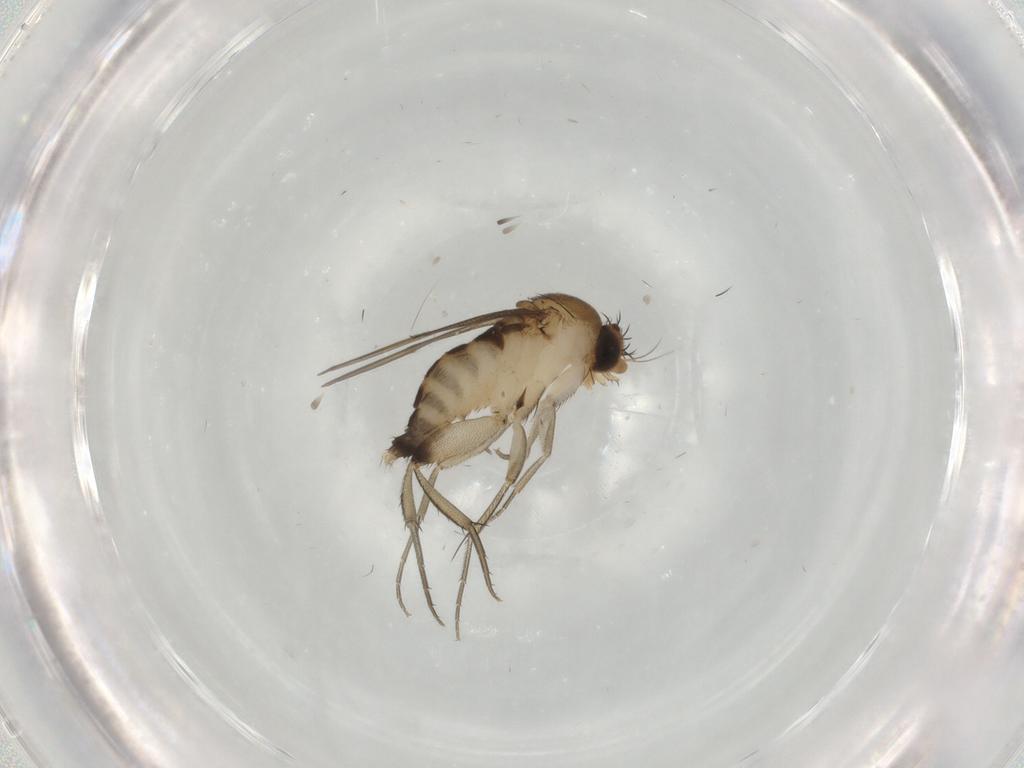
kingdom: Animalia
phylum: Arthropoda
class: Insecta
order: Diptera
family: Phoridae
